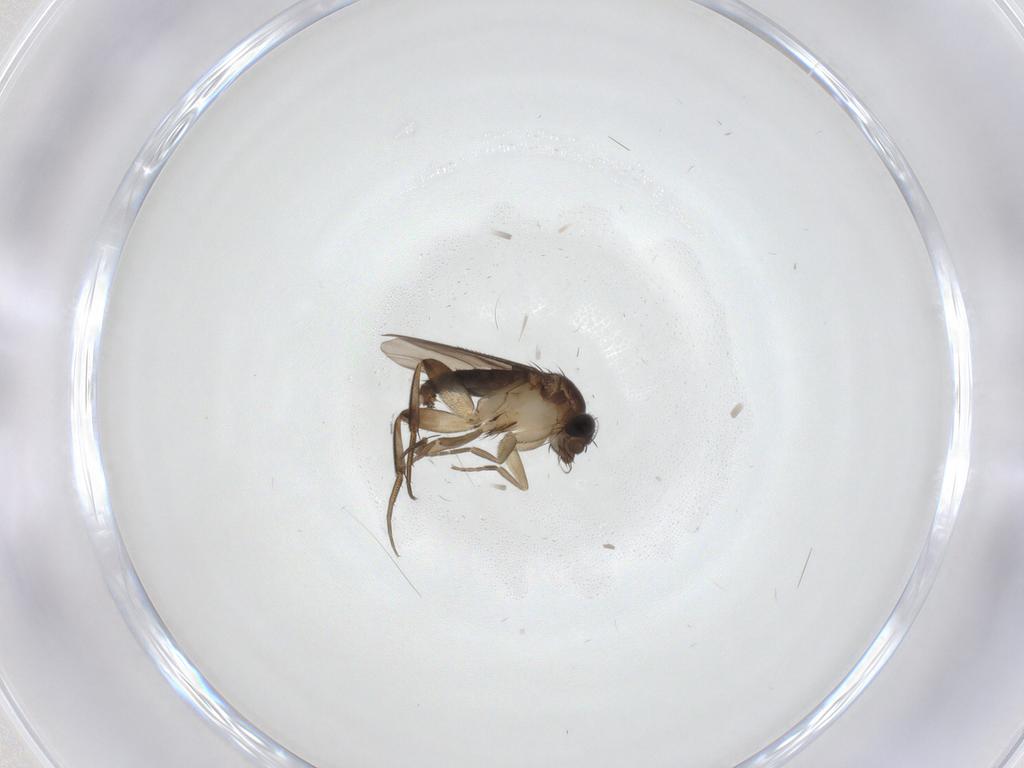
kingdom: Animalia
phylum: Arthropoda
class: Insecta
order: Diptera
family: Phoridae
